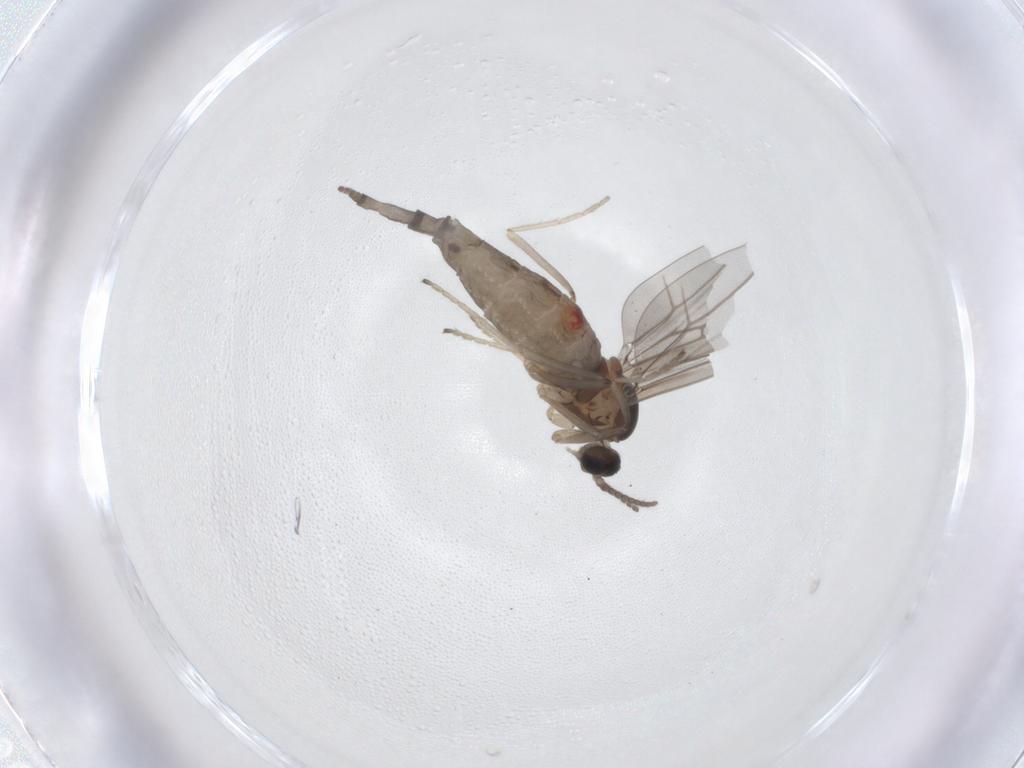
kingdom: Animalia
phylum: Arthropoda
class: Insecta
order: Diptera
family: Cecidomyiidae
